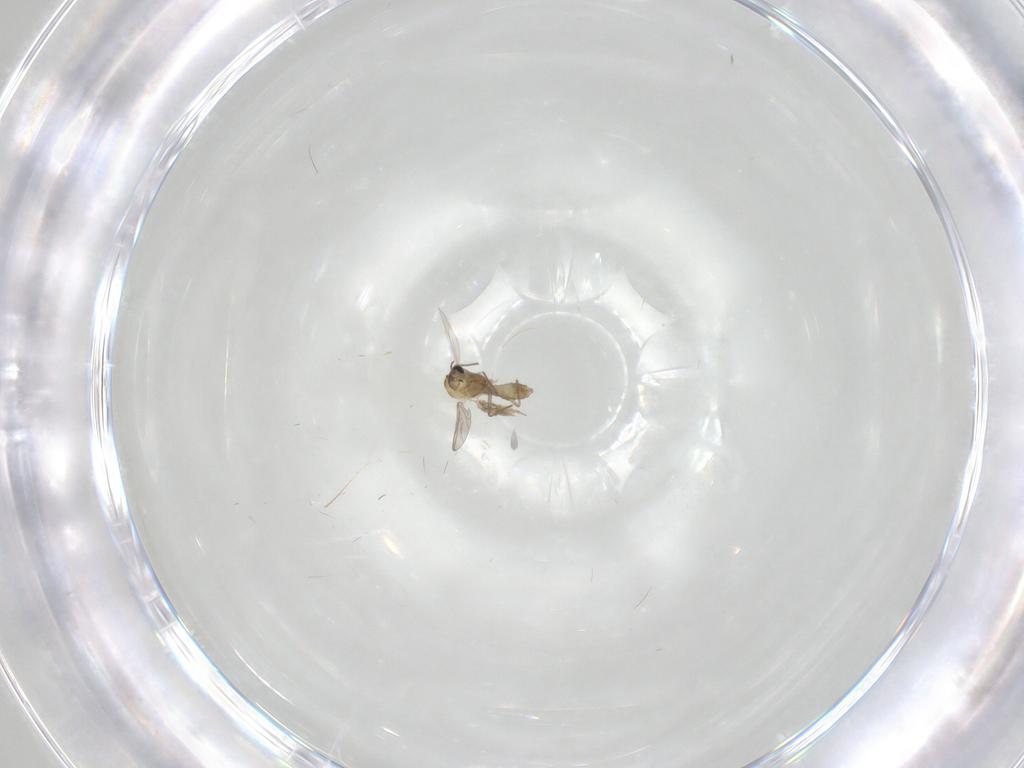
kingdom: Animalia
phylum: Arthropoda
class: Insecta
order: Diptera
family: Chironomidae
